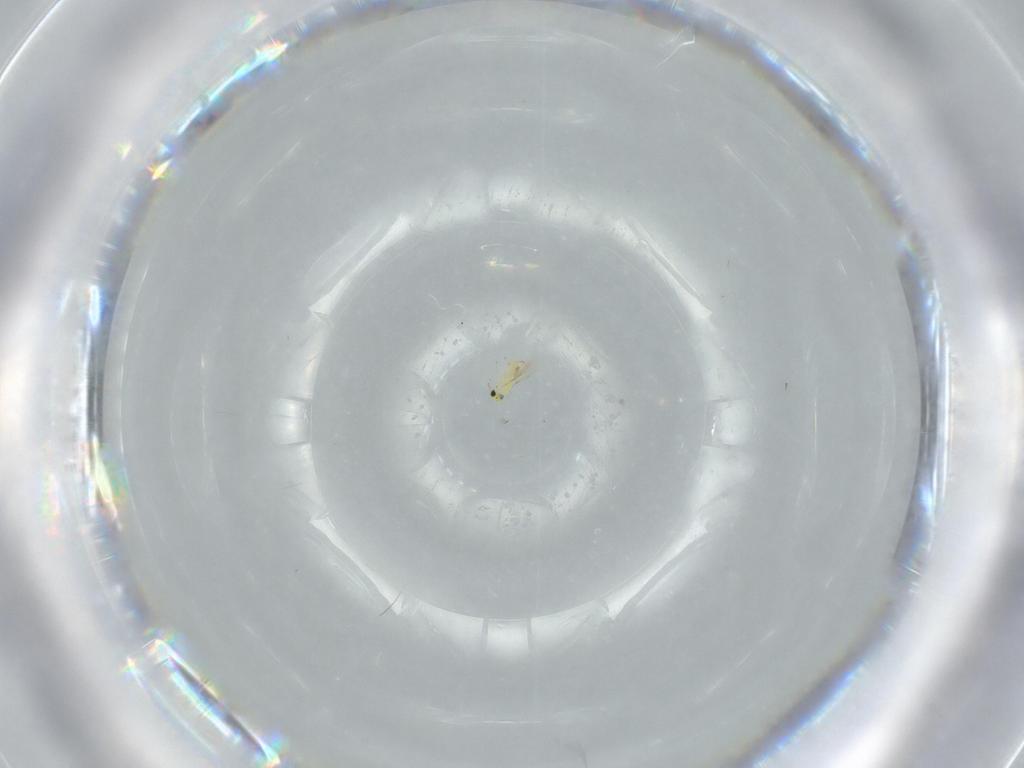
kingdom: Animalia
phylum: Arthropoda
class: Insecta
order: Hymenoptera
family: Trichogrammatidae
